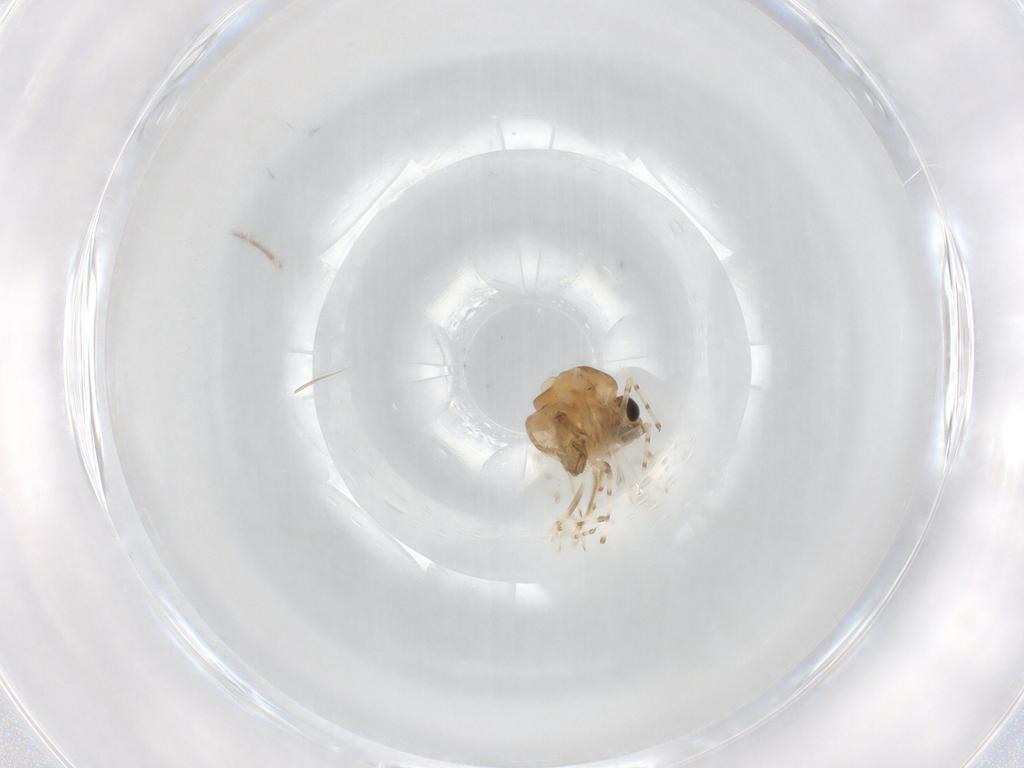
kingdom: Animalia
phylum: Arthropoda
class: Insecta
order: Diptera
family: Chironomidae
